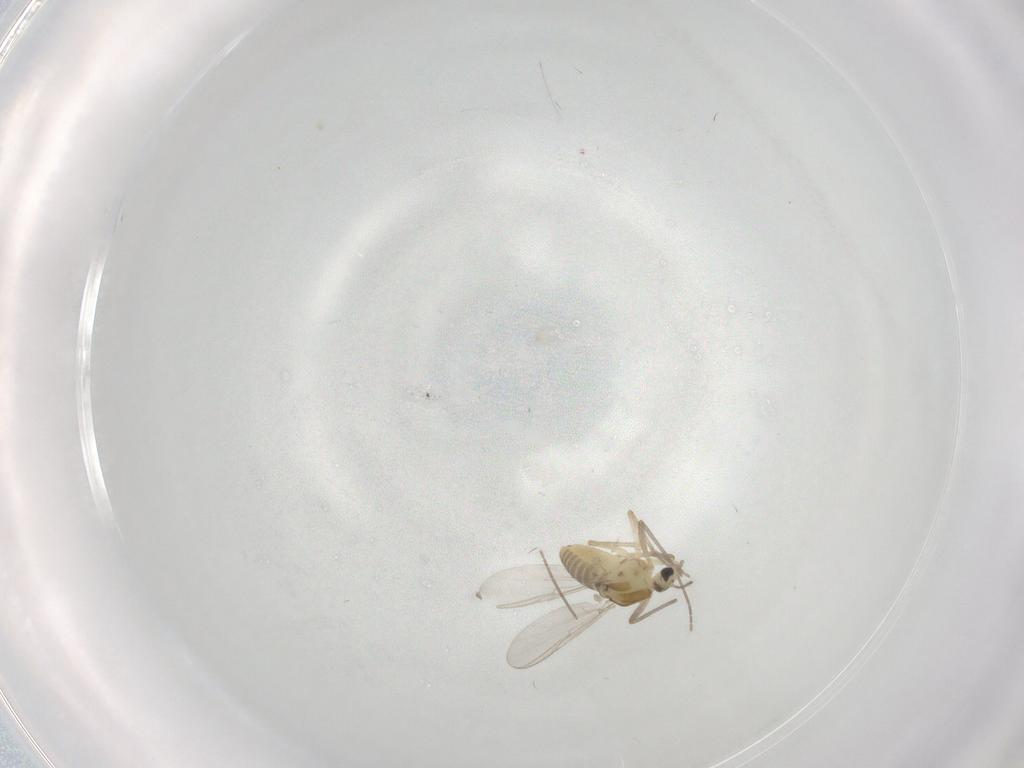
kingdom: Animalia
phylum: Arthropoda
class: Insecta
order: Diptera
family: Chironomidae
